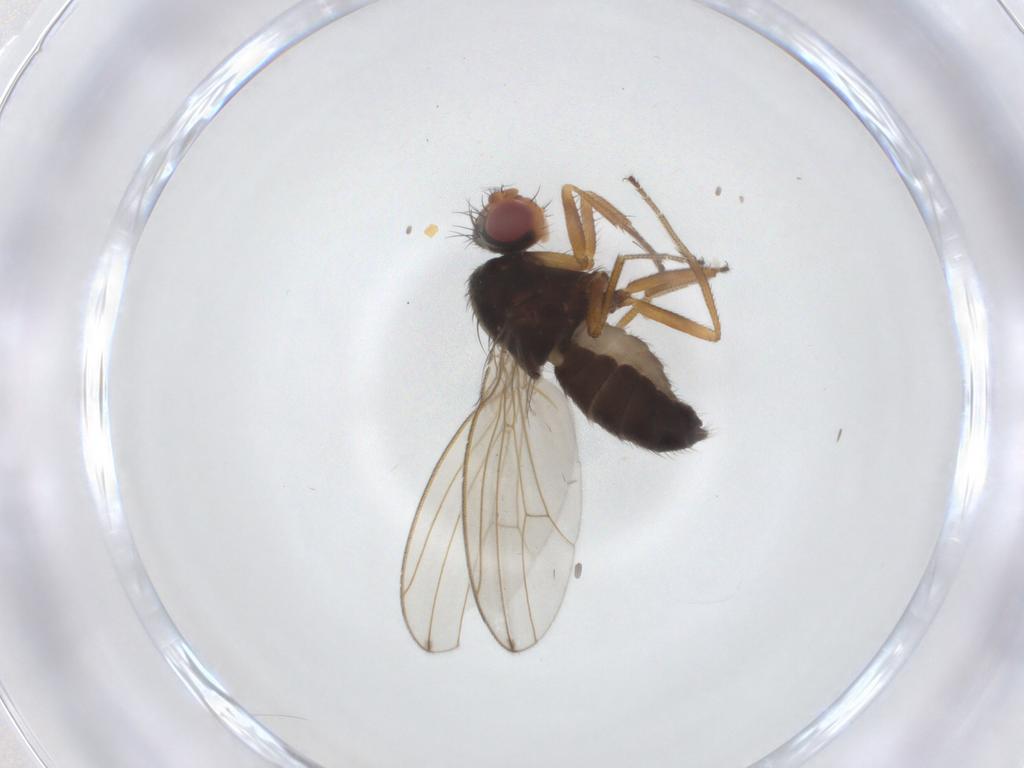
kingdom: Animalia
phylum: Arthropoda
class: Insecta
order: Diptera
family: Drosophilidae
